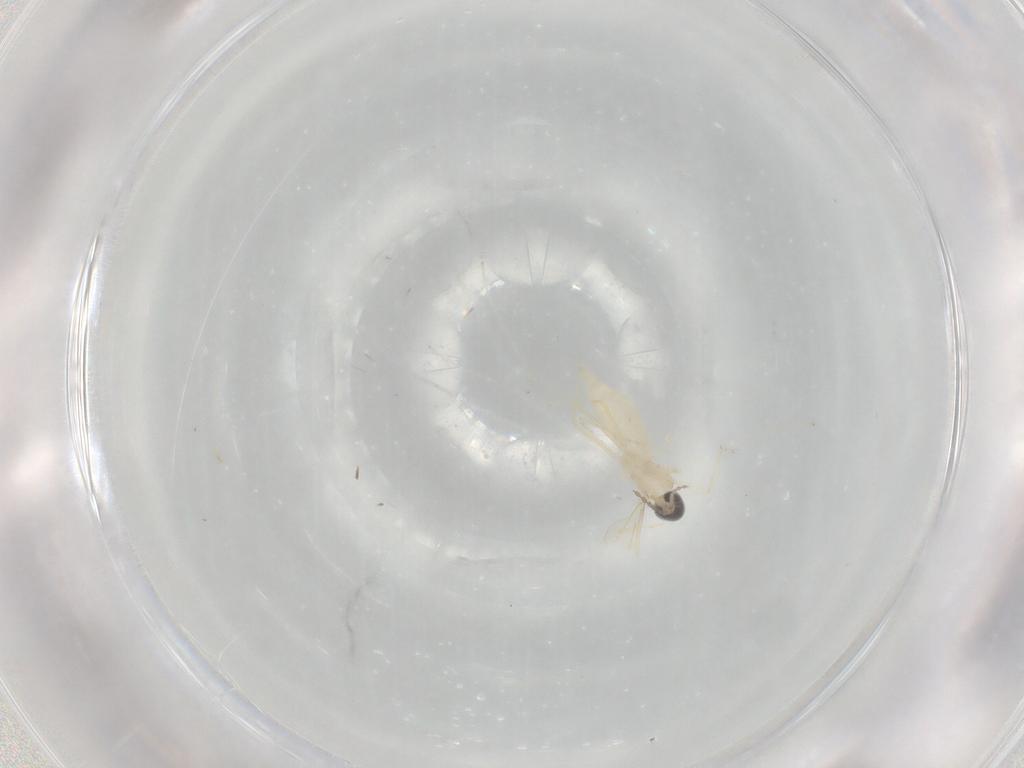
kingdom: Animalia
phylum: Arthropoda
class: Insecta
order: Diptera
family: Cecidomyiidae
